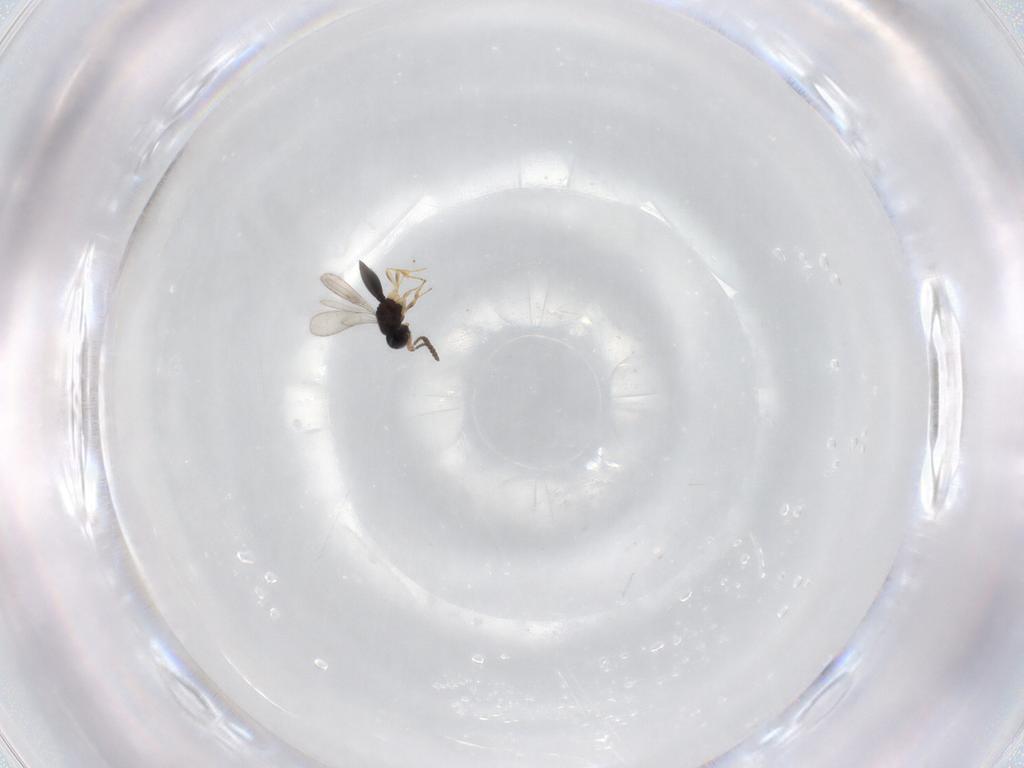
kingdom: Animalia
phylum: Arthropoda
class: Insecta
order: Hymenoptera
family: Scelionidae
